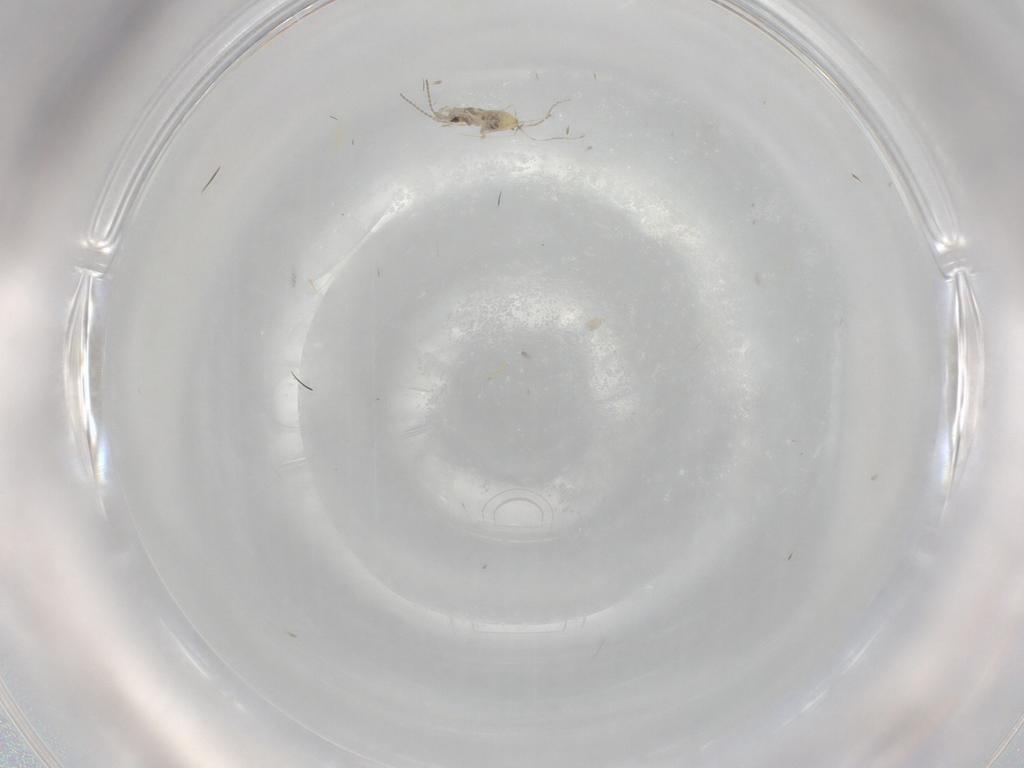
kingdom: Animalia
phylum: Arthropoda
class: Insecta
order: Diptera
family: Cecidomyiidae
